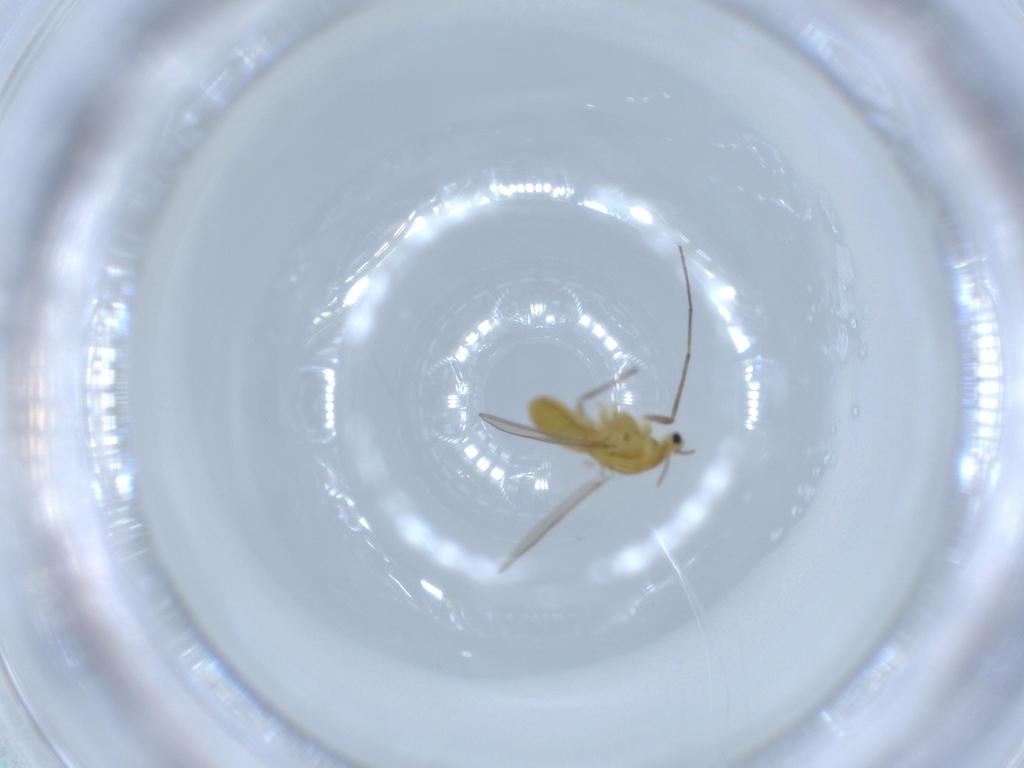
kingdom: Animalia
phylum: Arthropoda
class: Insecta
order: Diptera
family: Chironomidae
